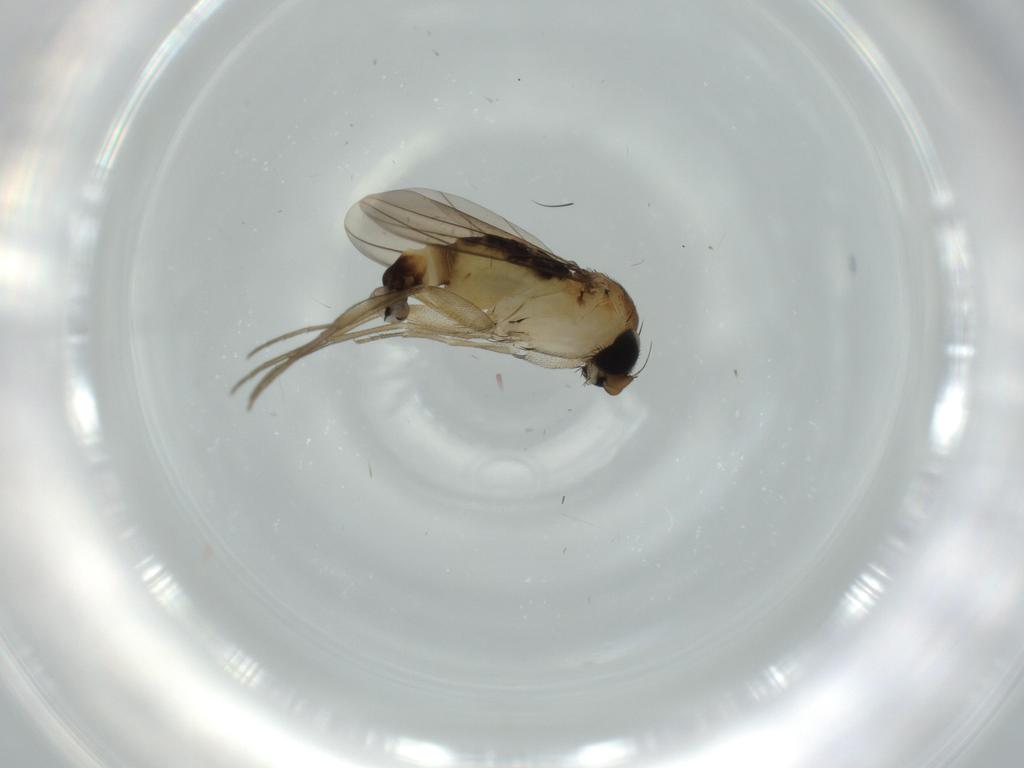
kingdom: Animalia
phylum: Arthropoda
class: Insecta
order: Diptera
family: Phoridae
